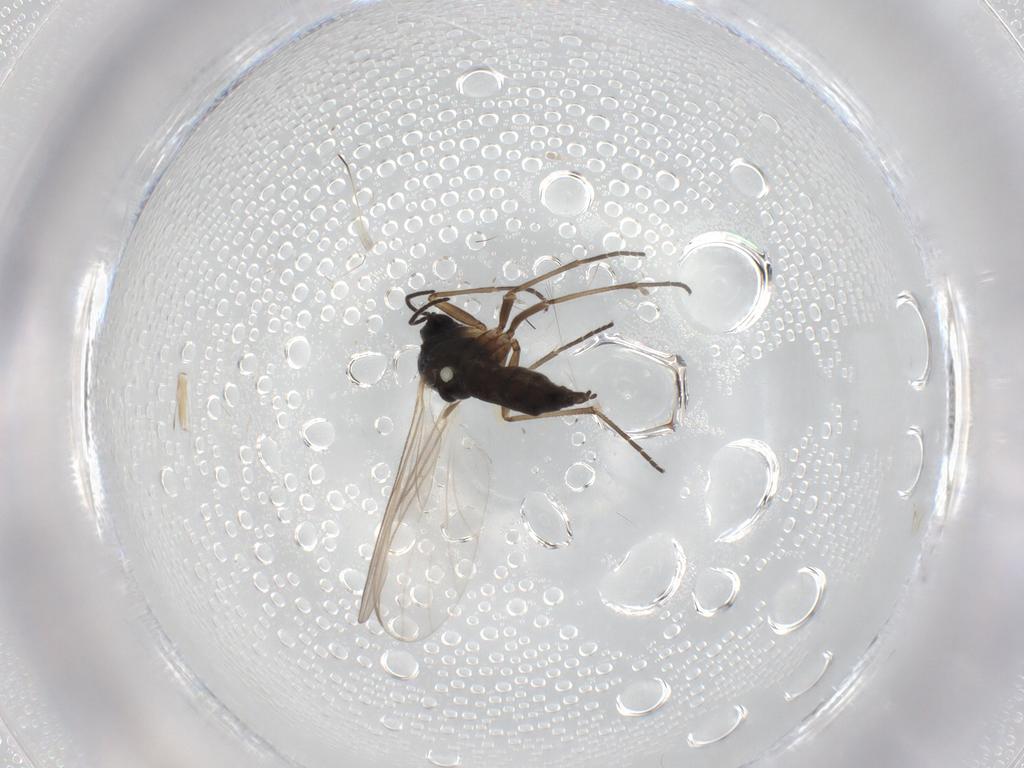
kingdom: Animalia
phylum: Arthropoda
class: Insecta
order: Diptera
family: Sciaridae
